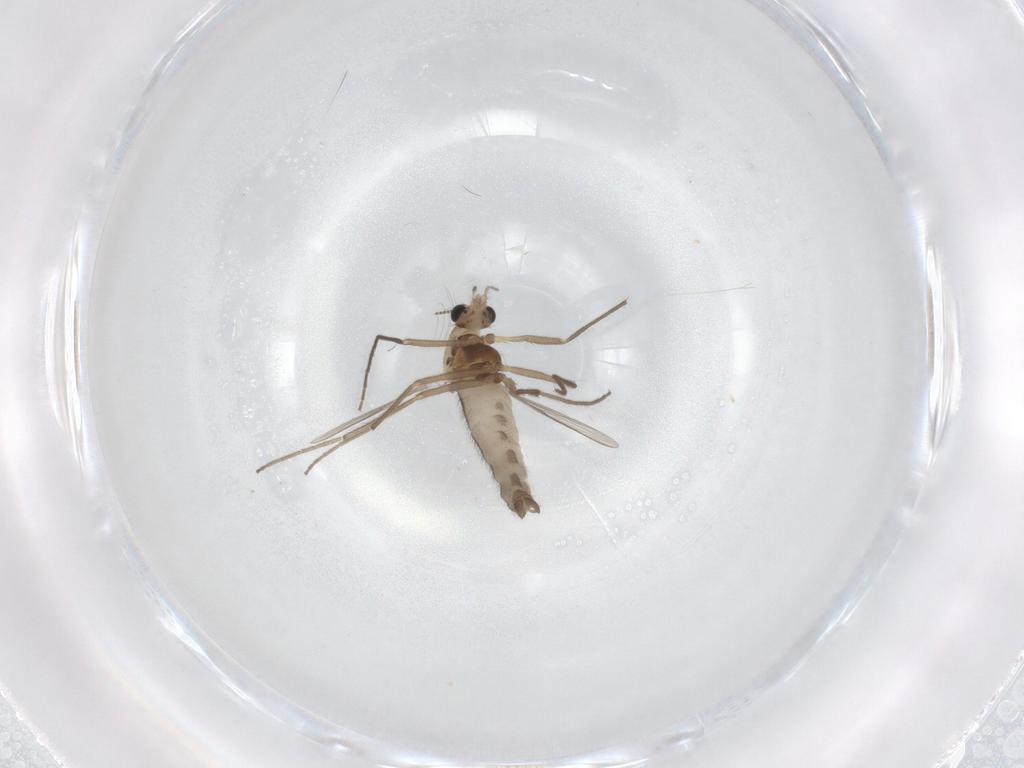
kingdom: Animalia
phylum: Arthropoda
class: Insecta
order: Diptera
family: Chironomidae
